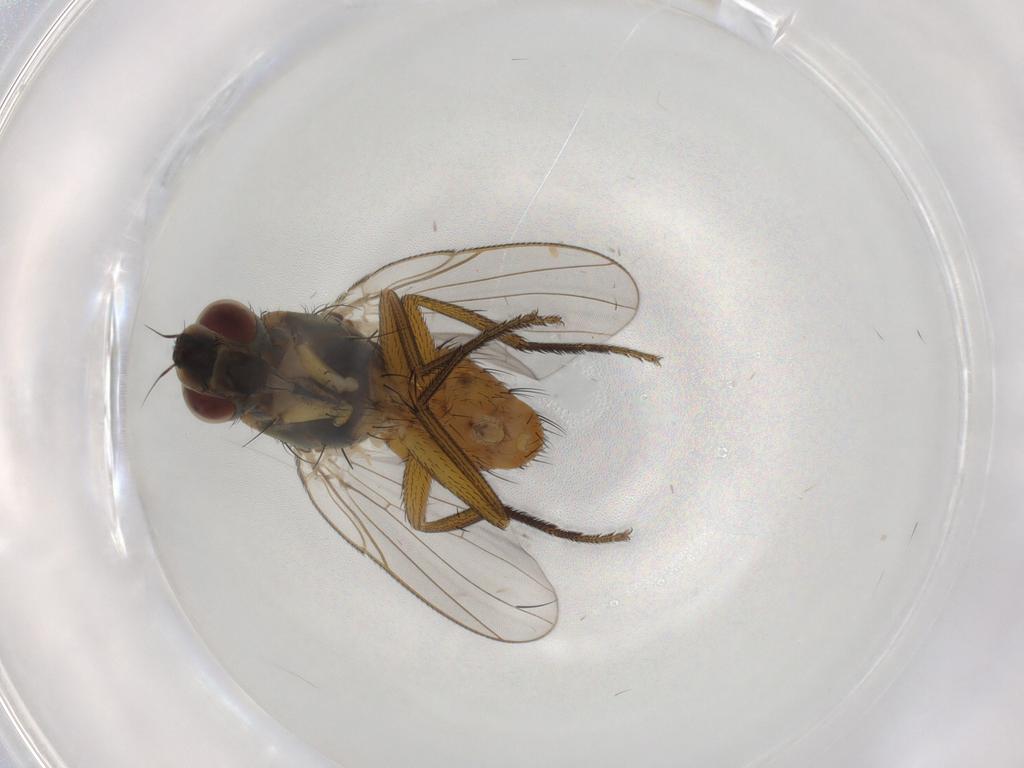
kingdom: Animalia
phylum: Arthropoda
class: Insecta
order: Diptera
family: Muscidae
